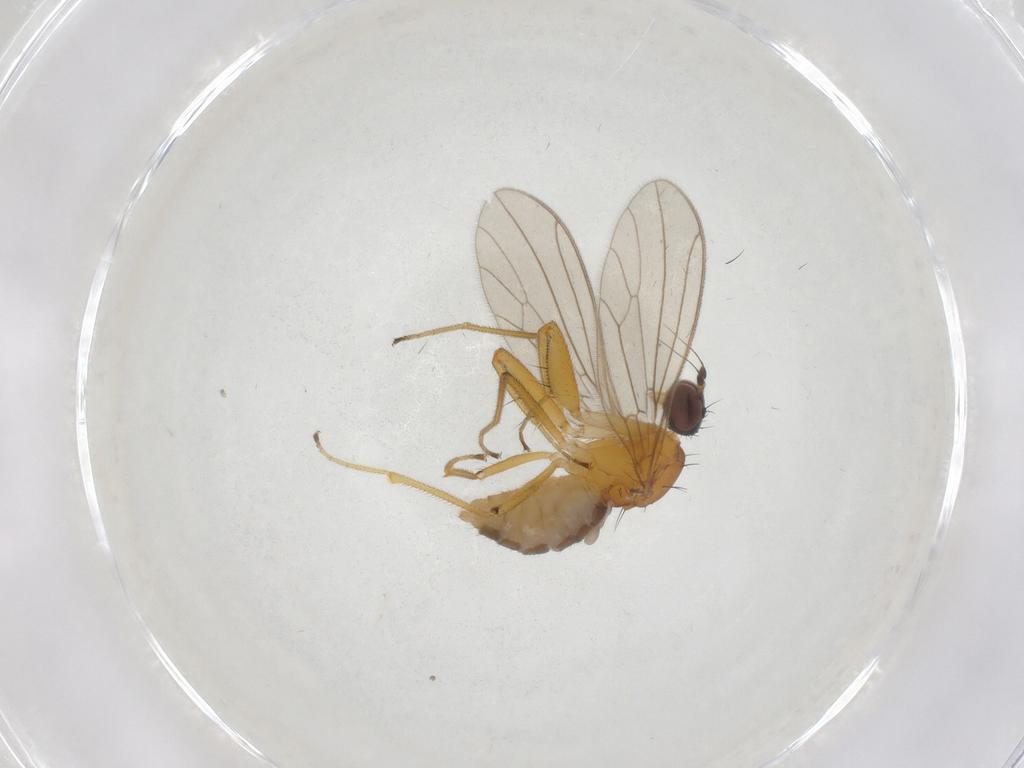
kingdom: Animalia
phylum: Arthropoda
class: Insecta
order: Diptera
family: Empididae
